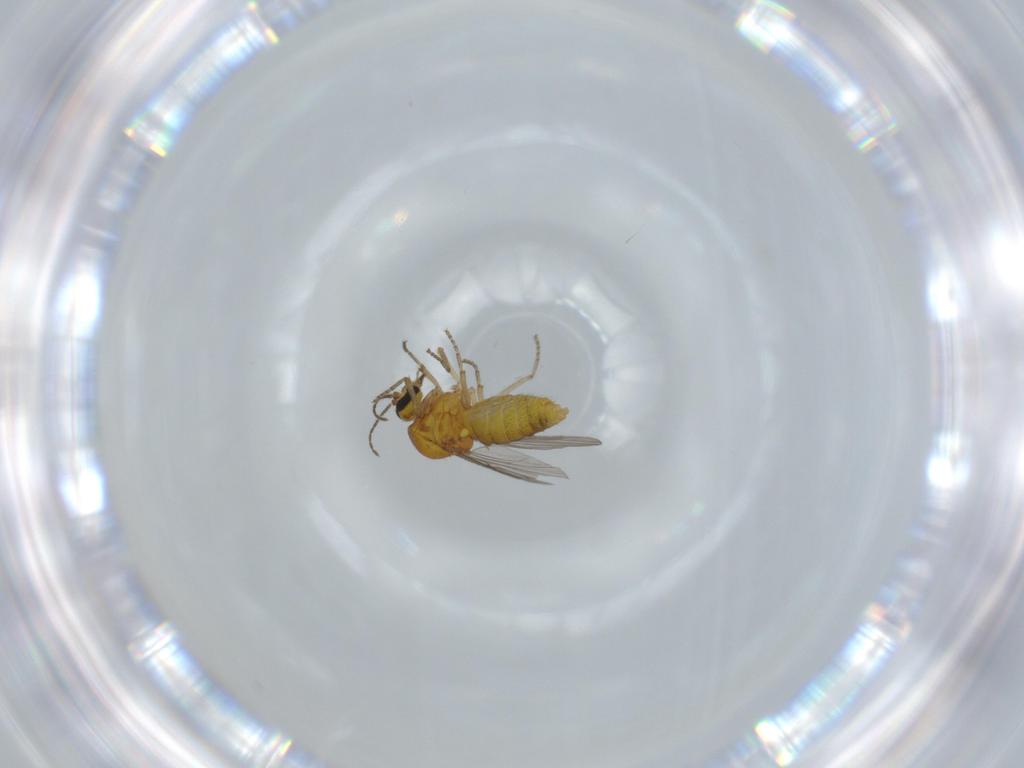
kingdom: Animalia
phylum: Arthropoda
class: Insecta
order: Diptera
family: Ceratopogonidae
